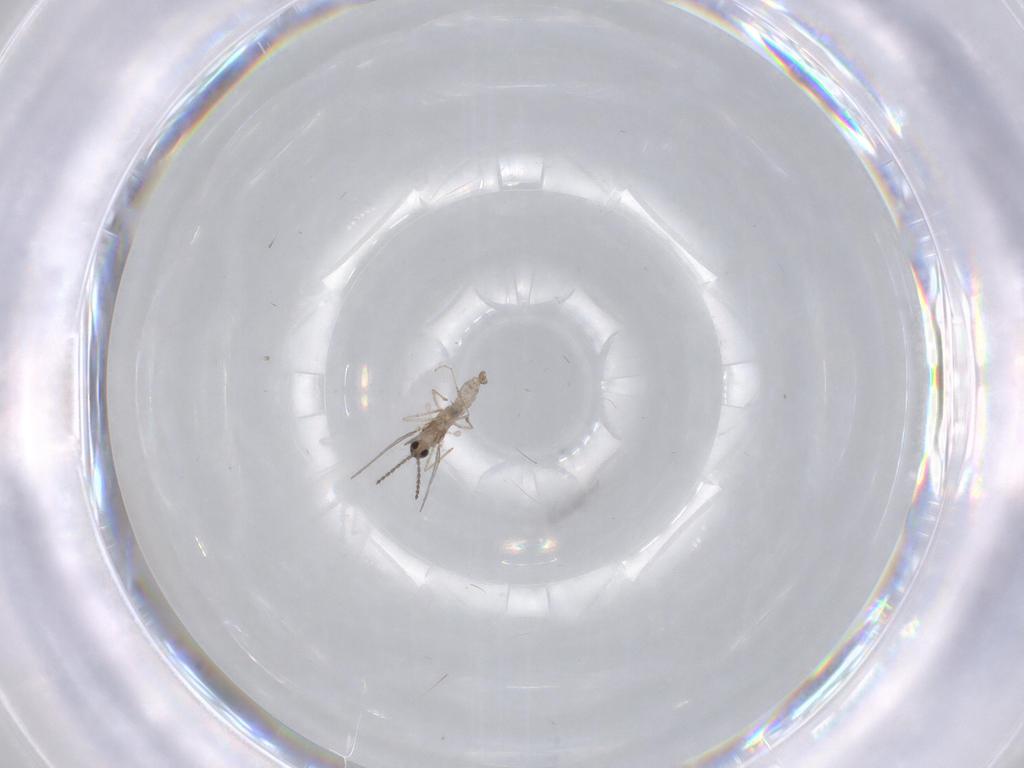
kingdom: Animalia
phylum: Arthropoda
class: Insecta
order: Diptera
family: Chironomidae
